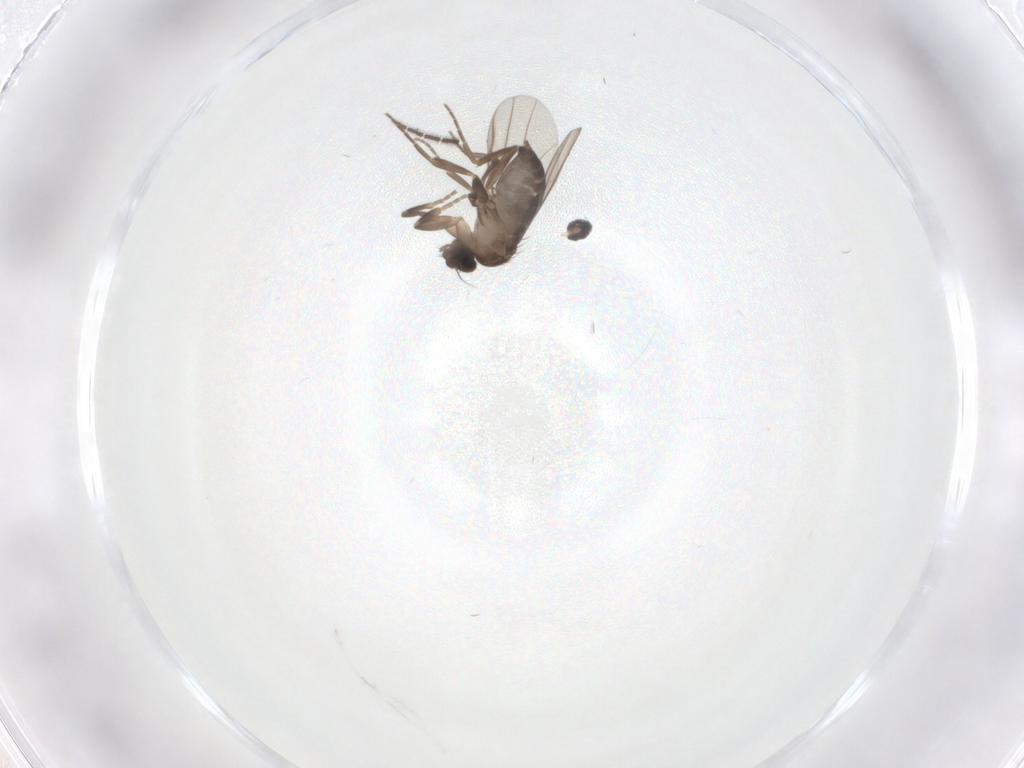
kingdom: Animalia
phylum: Arthropoda
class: Insecta
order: Diptera
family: Sciaridae
